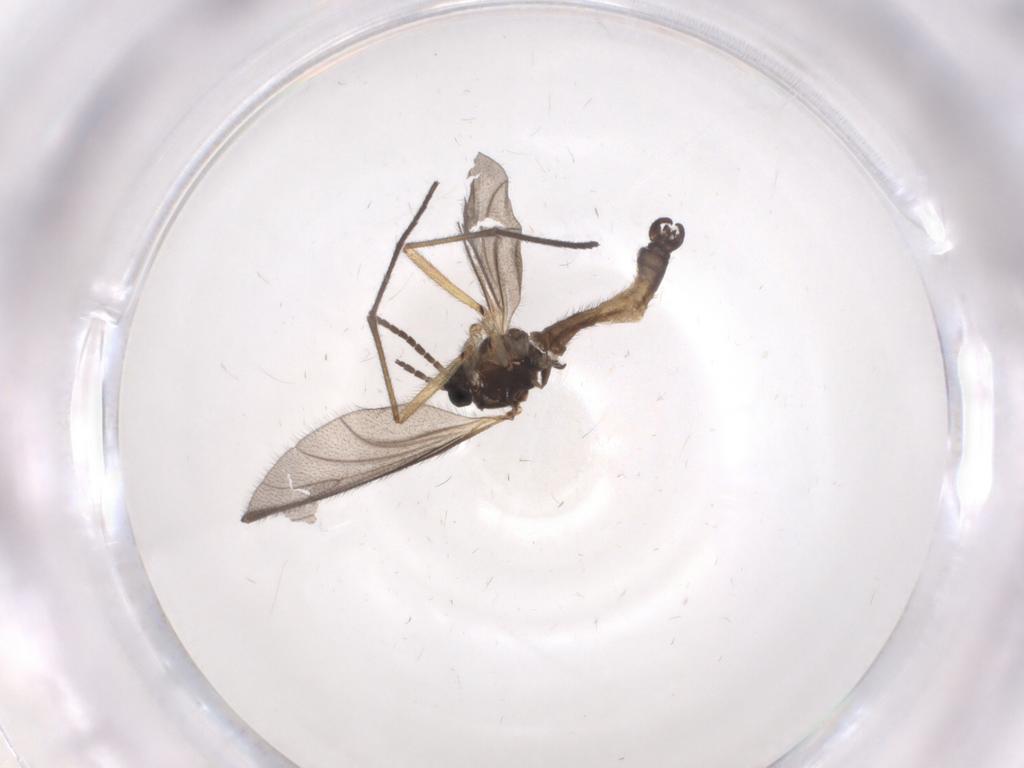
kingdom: Animalia
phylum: Arthropoda
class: Insecta
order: Diptera
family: Sciaridae
